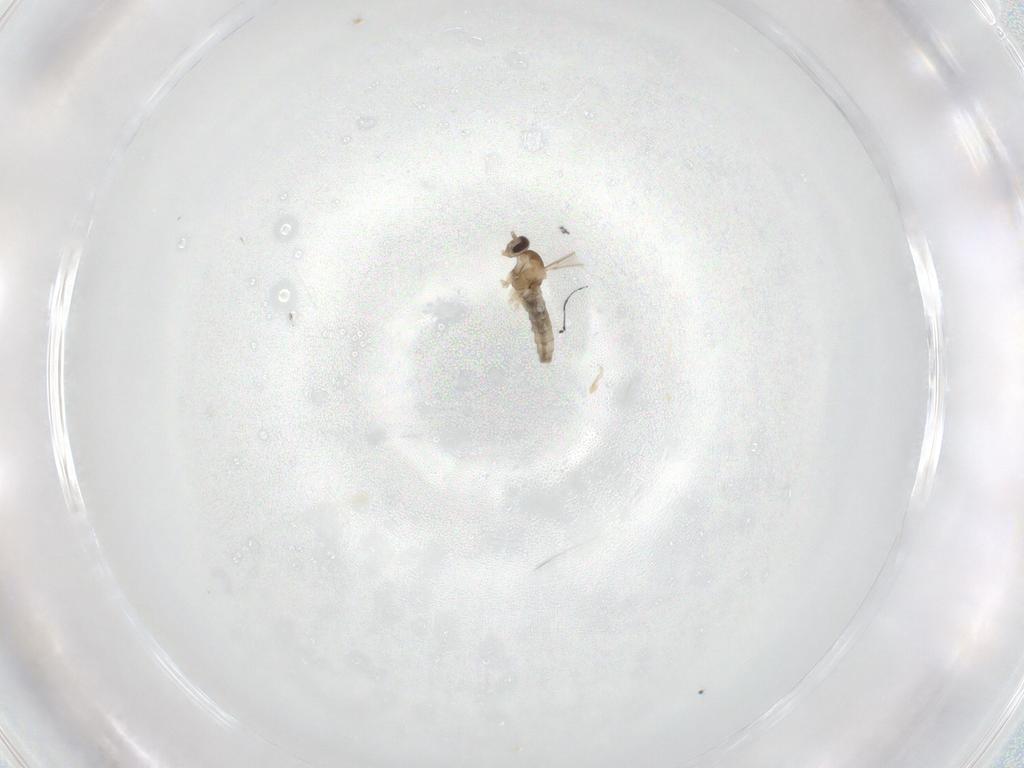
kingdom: Animalia
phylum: Arthropoda
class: Insecta
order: Diptera
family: Cecidomyiidae
